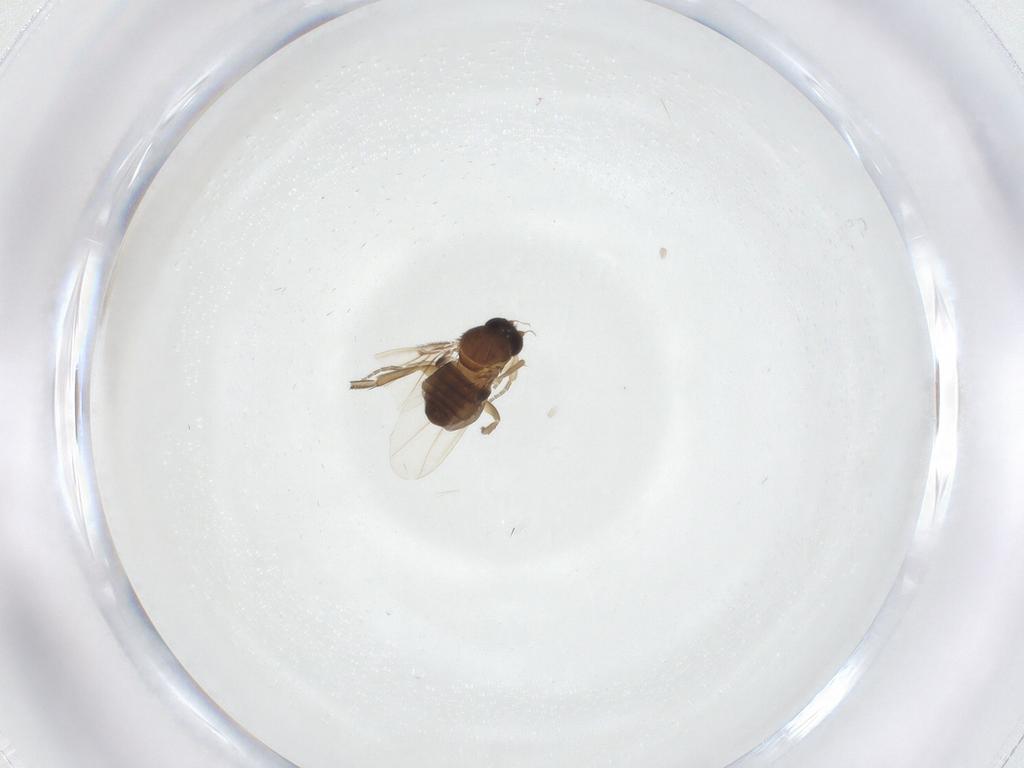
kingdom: Animalia
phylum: Arthropoda
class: Insecta
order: Diptera
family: Phoridae
